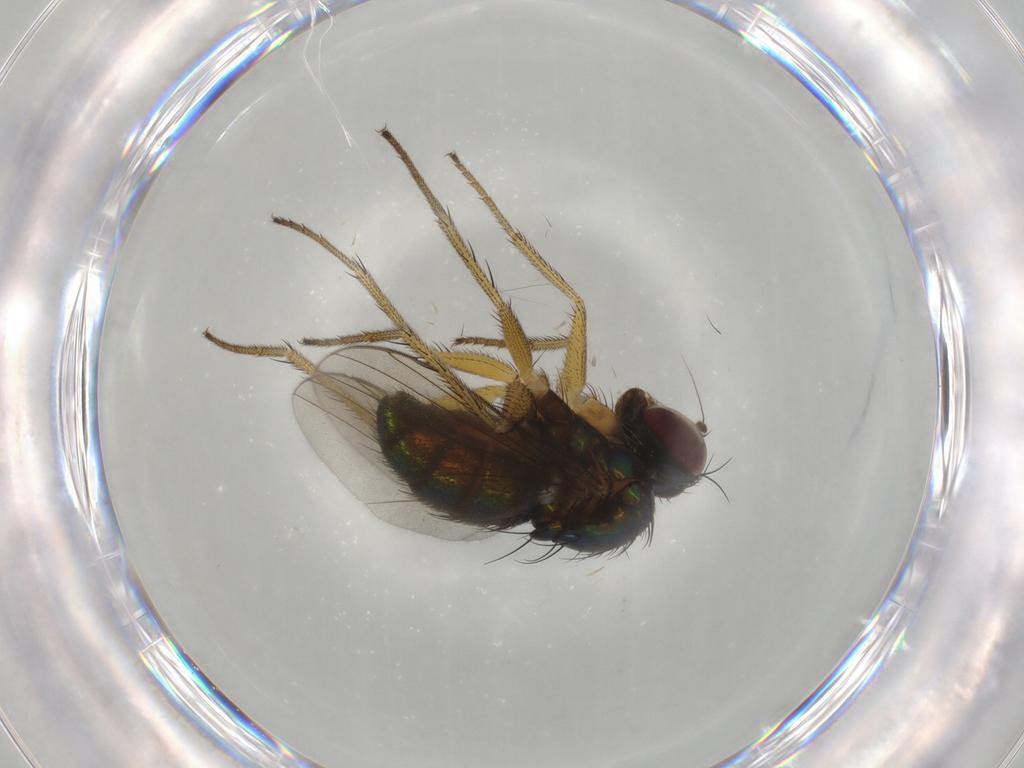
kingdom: Animalia
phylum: Arthropoda
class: Insecta
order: Diptera
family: Dolichopodidae
